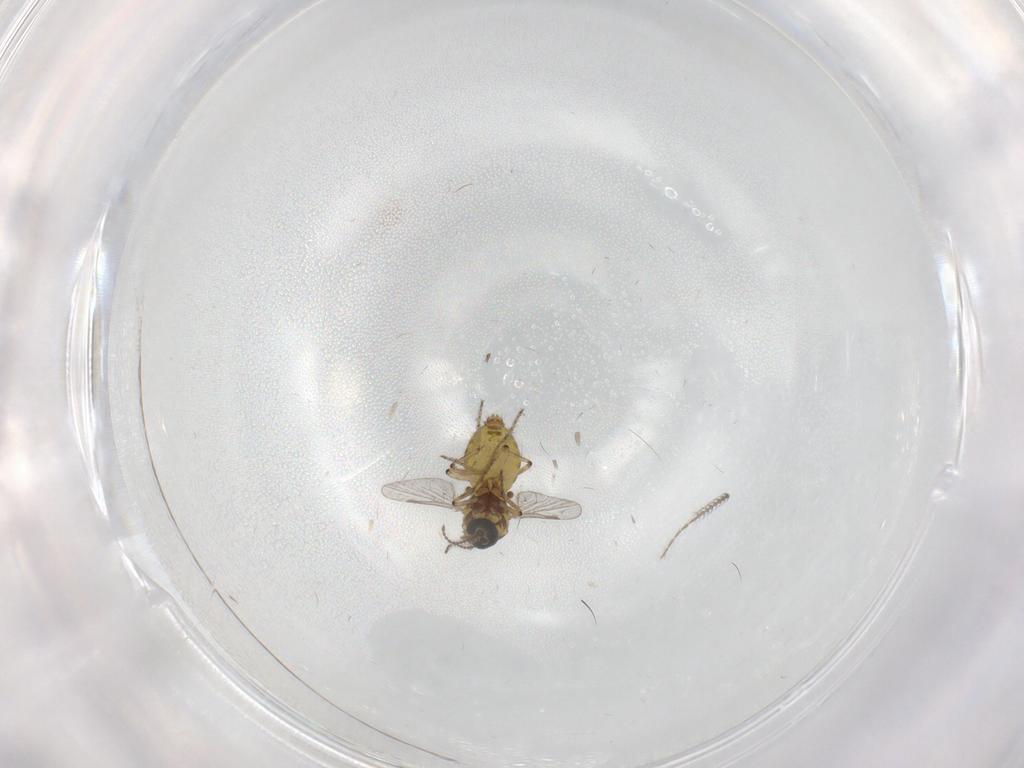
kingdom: Animalia
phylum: Arthropoda
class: Insecta
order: Diptera
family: Ceratopogonidae
